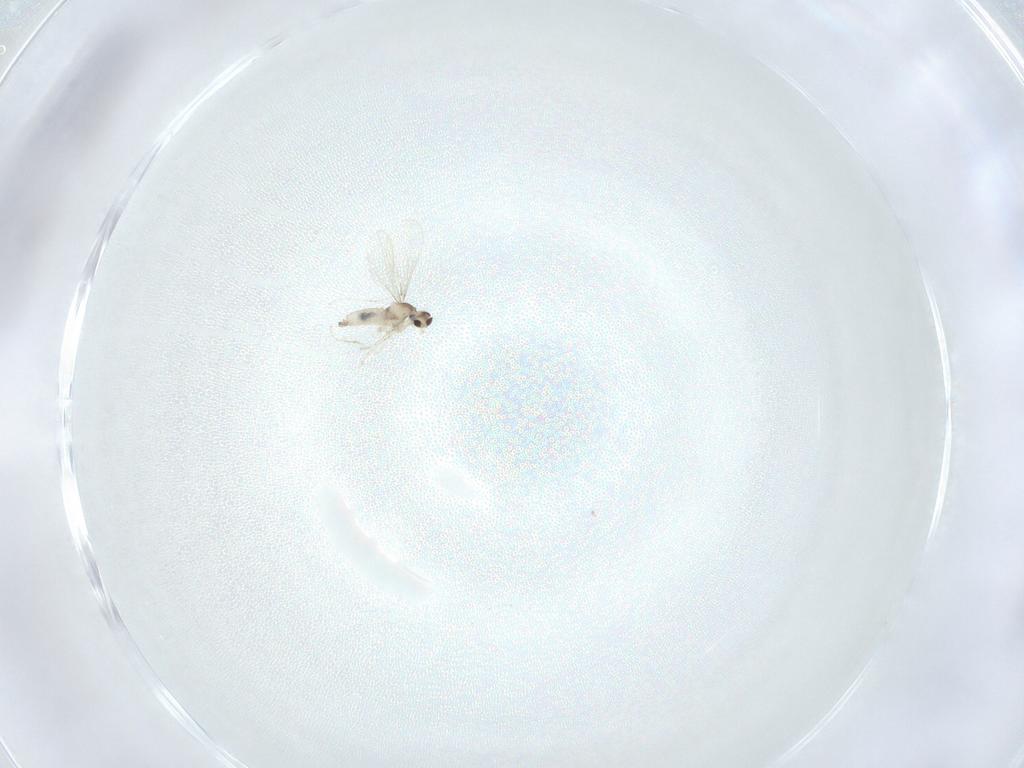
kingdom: Animalia
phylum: Arthropoda
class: Insecta
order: Diptera
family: Cecidomyiidae
